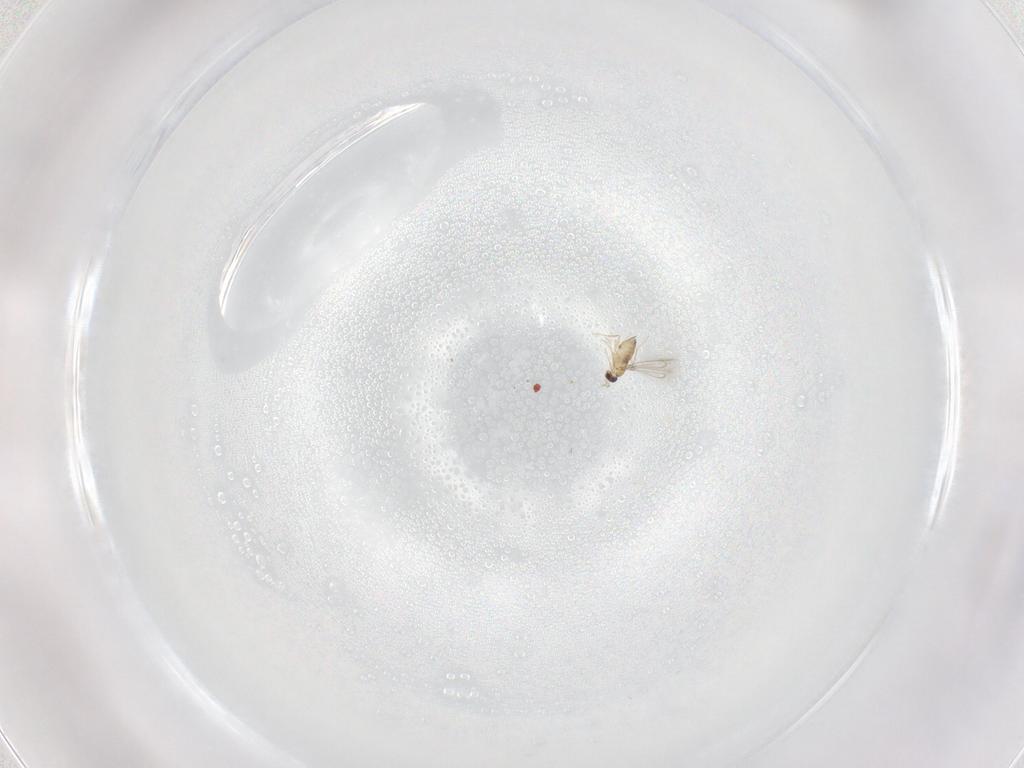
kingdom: Animalia
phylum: Arthropoda
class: Insecta
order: Hymenoptera
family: Mymaridae
